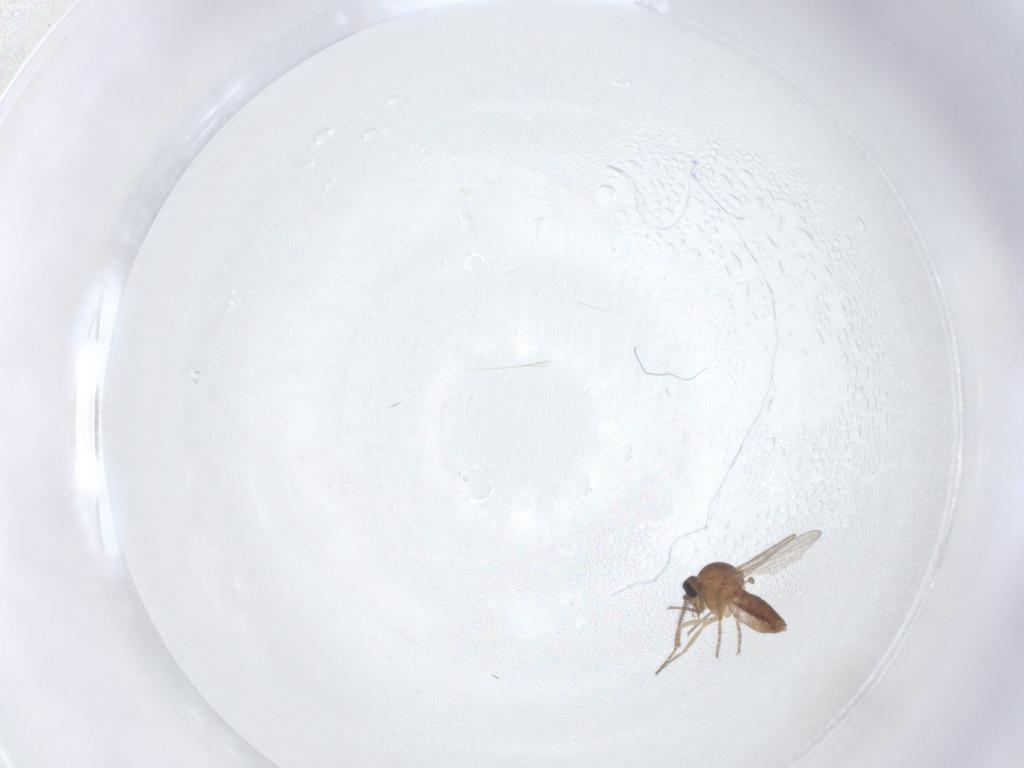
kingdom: Animalia
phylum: Arthropoda
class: Insecta
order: Diptera
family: Ceratopogonidae
